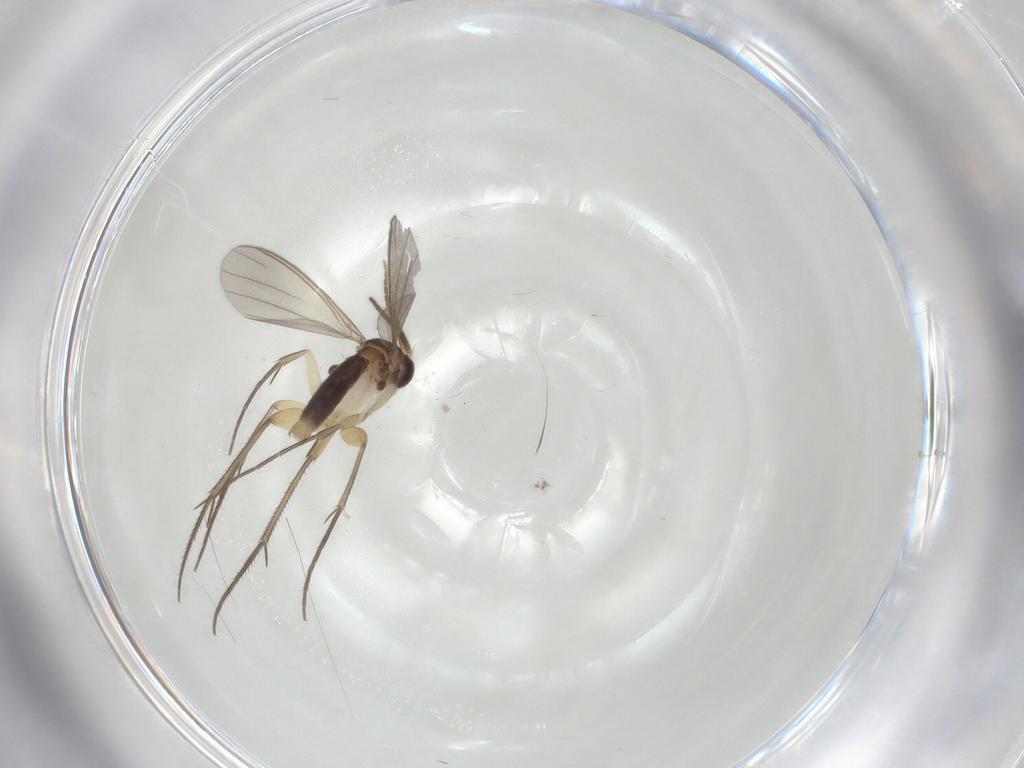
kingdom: Animalia
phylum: Arthropoda
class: Insecta
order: Diptera
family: Mycetophilidae
